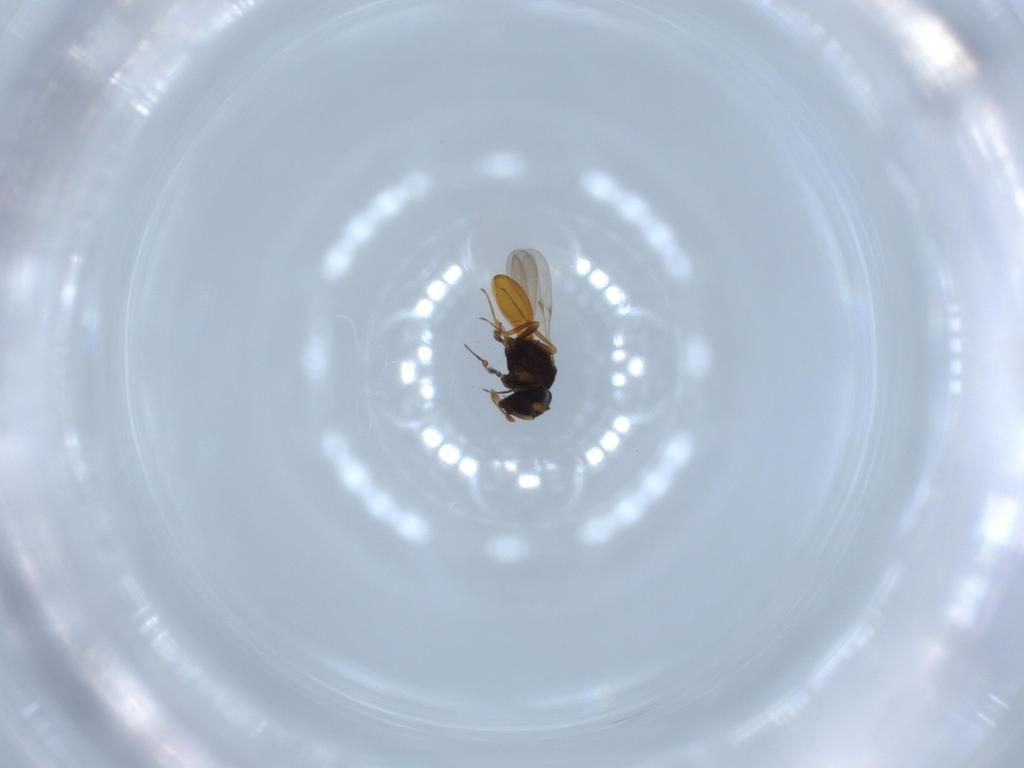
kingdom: Animalia
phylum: Arthropoda
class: Insecta
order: Hymenoptera
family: Scelionidae
